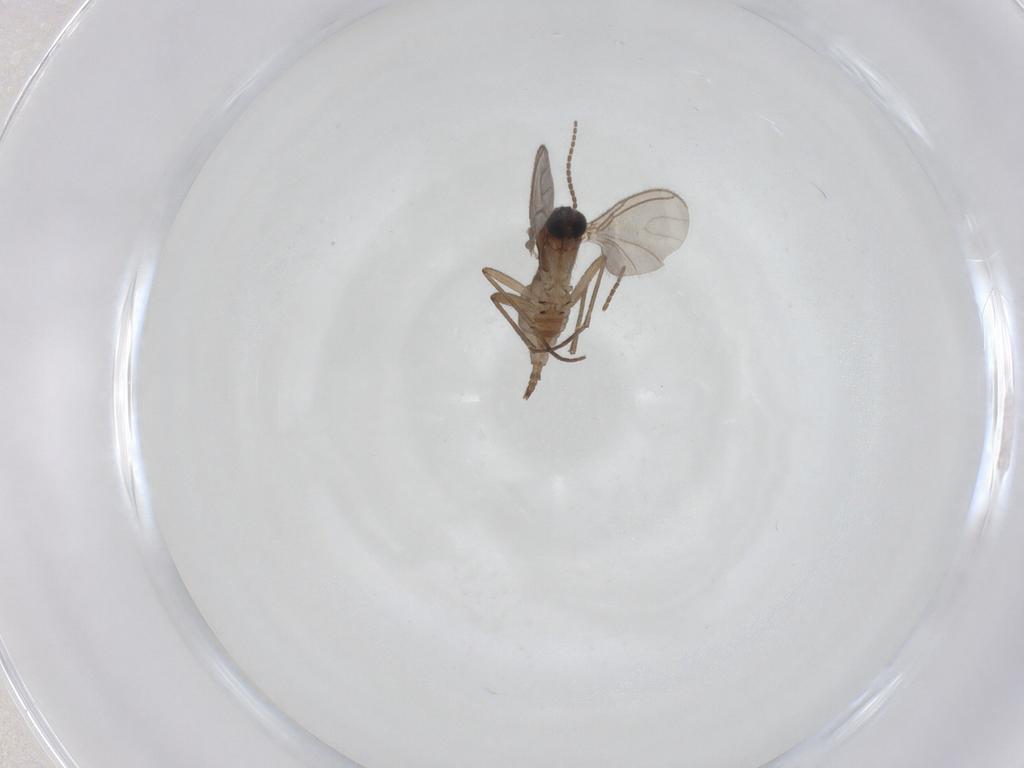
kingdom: Animalia
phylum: Arthropoda
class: Insecta
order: Diptera
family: Sciaridae
